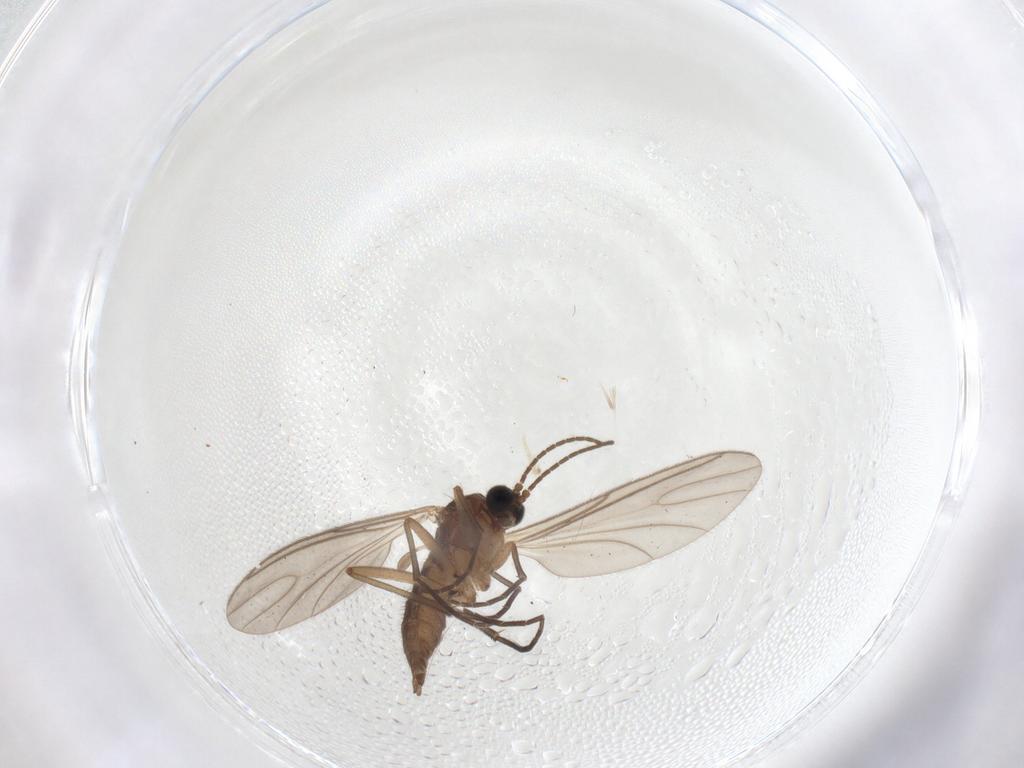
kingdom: Animalia
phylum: Arthropoda
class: Insecta
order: Diptera
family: Sciaridae
